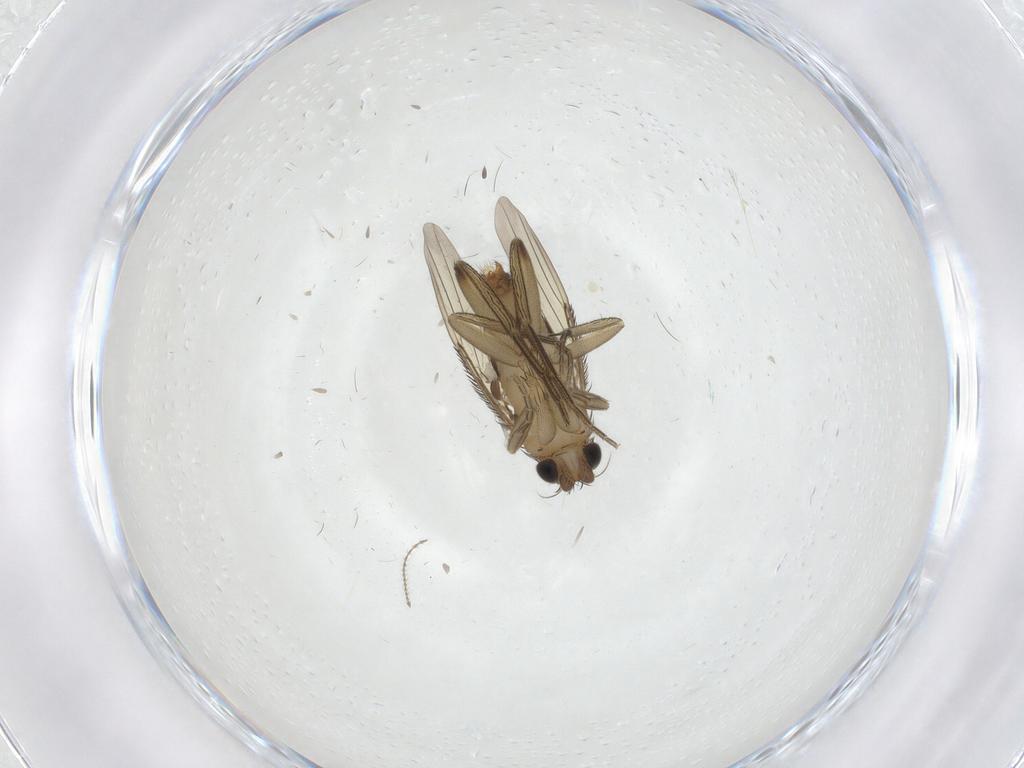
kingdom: Animalia
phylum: Arthropoda
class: Insecta
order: Diptera
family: Phoridae
